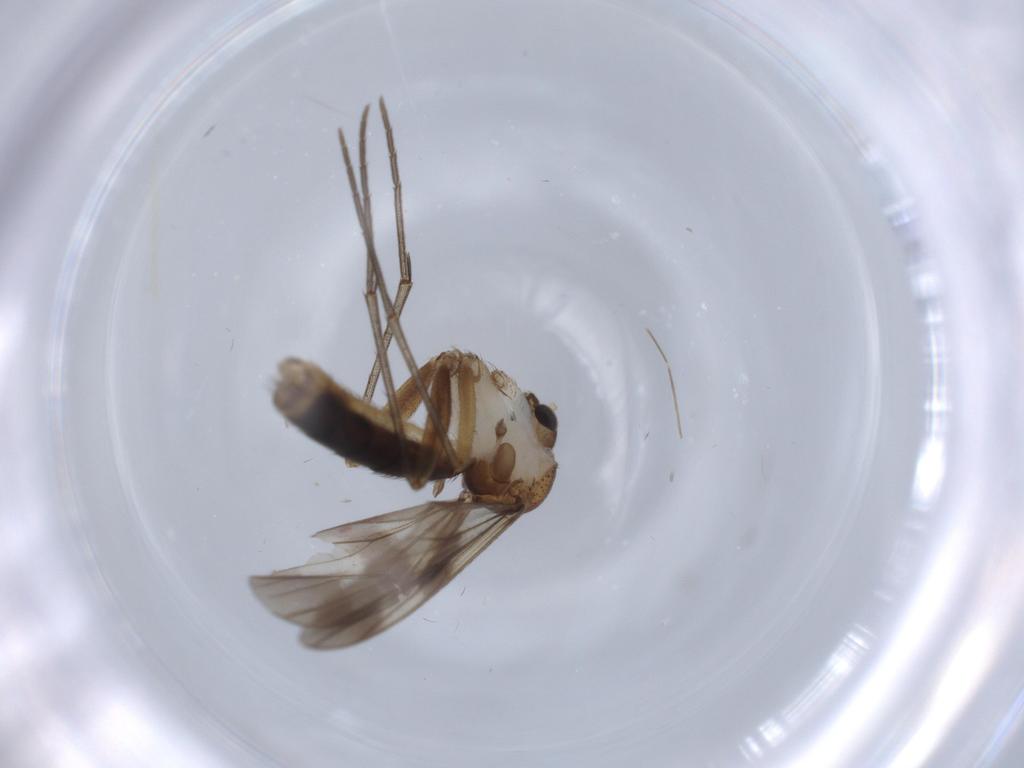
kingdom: Animalia
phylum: Arthropoda
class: Insecta
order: Diptera
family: Mycetophilidae
